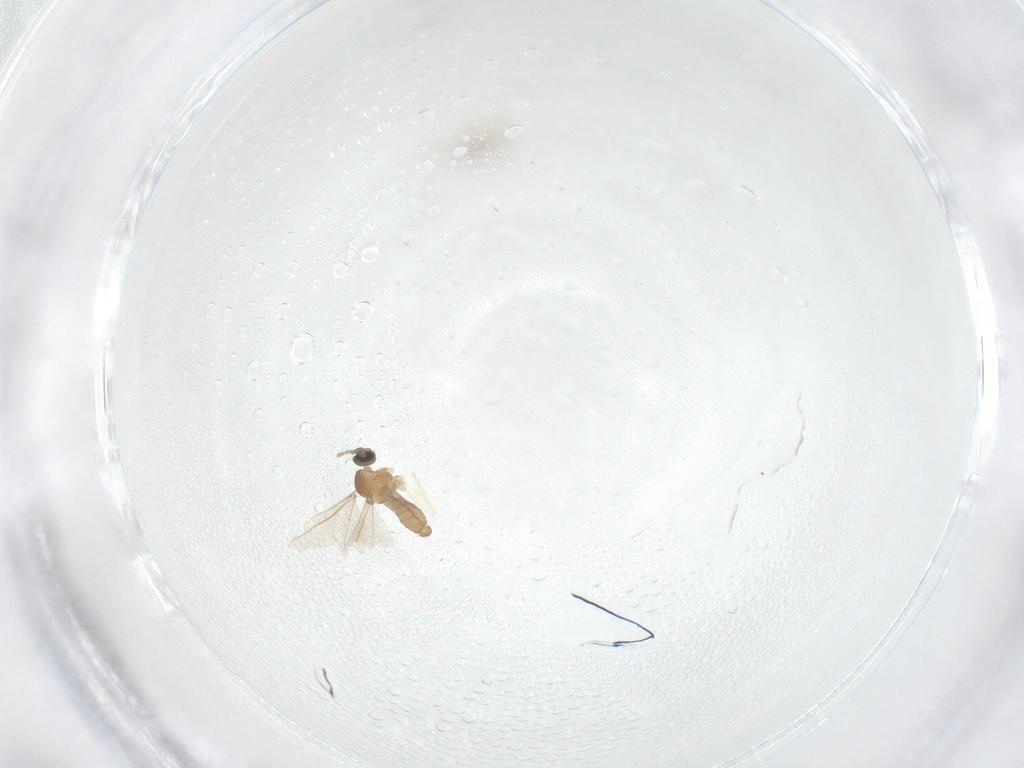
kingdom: Animalia
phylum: Arthropoda
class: Insecta
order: Diptera
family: Cecidomyiidae
